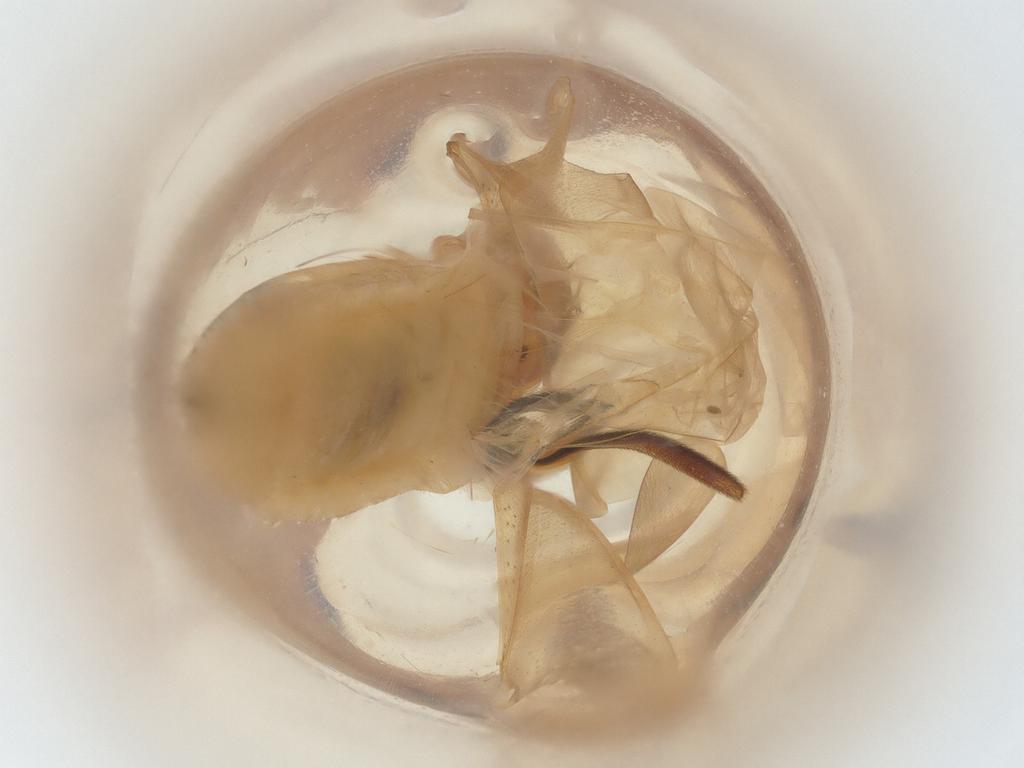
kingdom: Animalia
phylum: Arthropoda
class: Insecta
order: Hemiptera
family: Miridae
